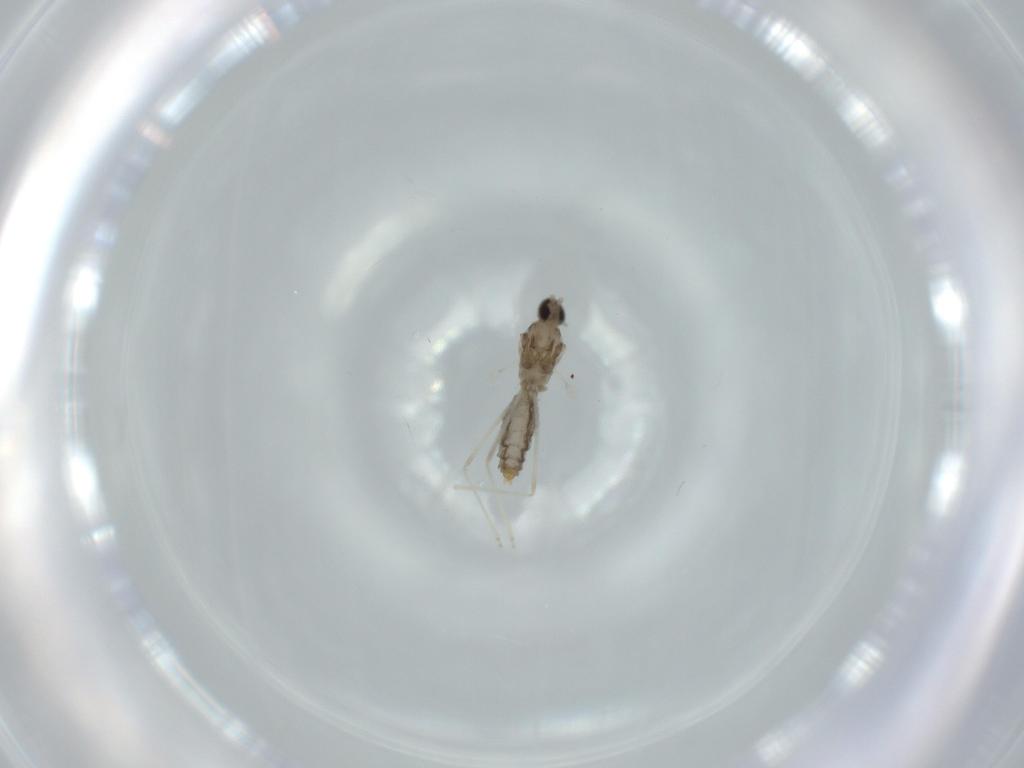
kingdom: Animalia
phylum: Arthropoda
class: Insecta
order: Diptera
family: Cecidomyiidae
